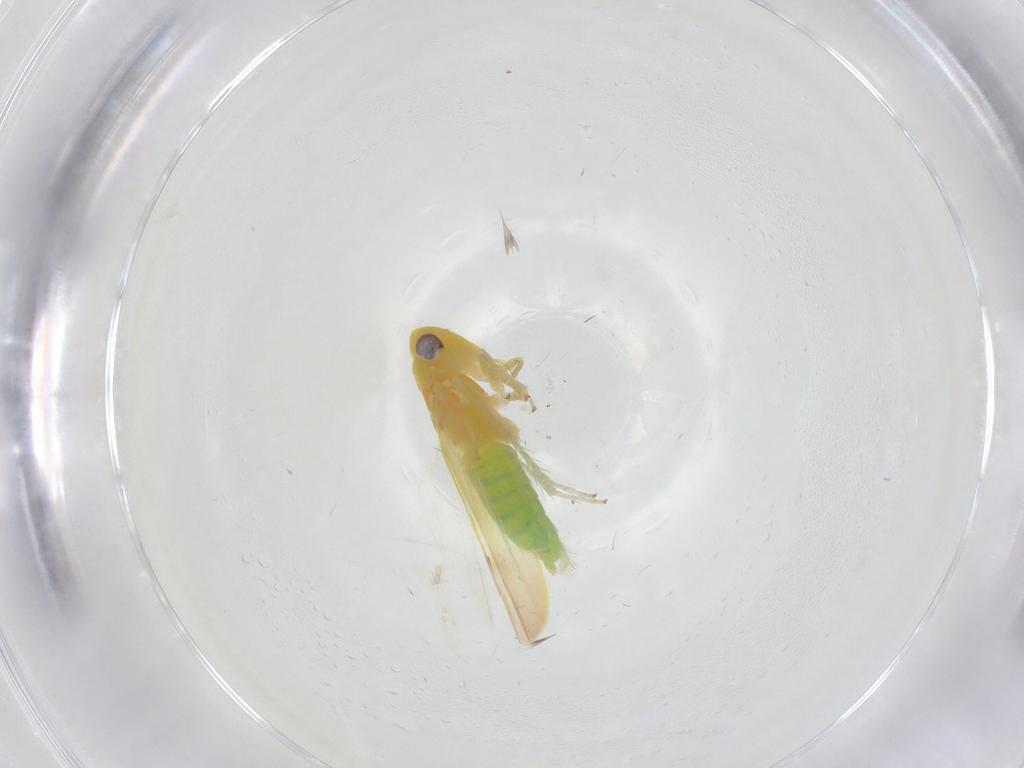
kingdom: Animalia
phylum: Arthropoda
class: Insecta
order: Hemiptera
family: Cicadellidae
